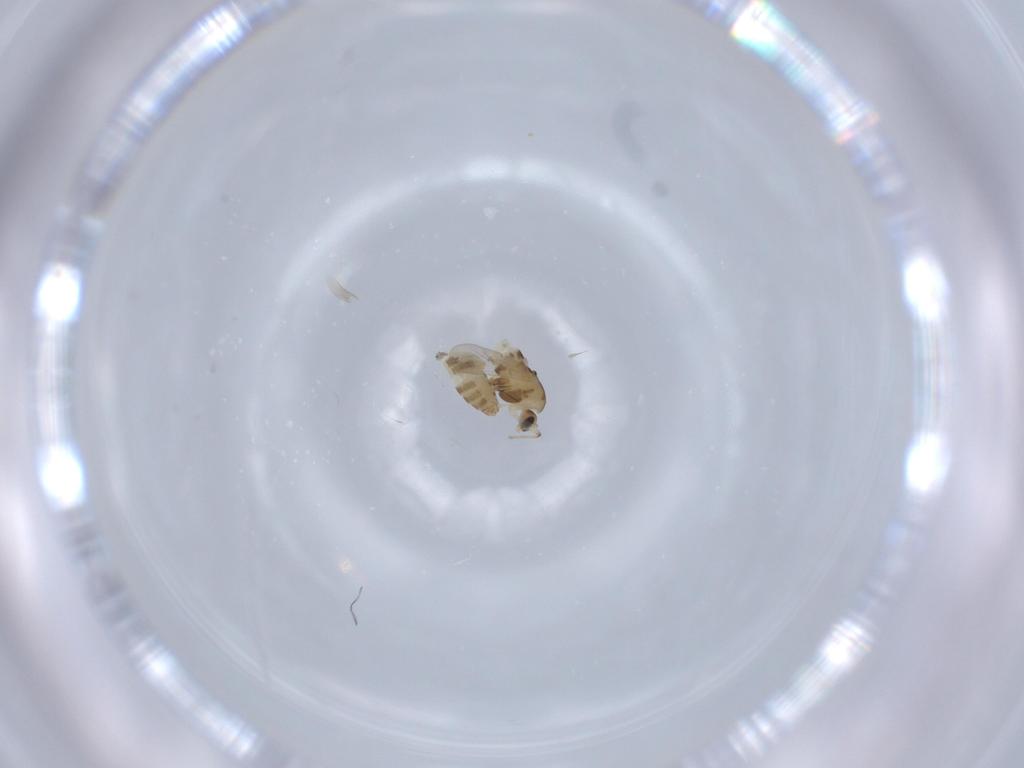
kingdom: Animalia
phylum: Arthropoda
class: Insecta
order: Diptera
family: Chironomidae
